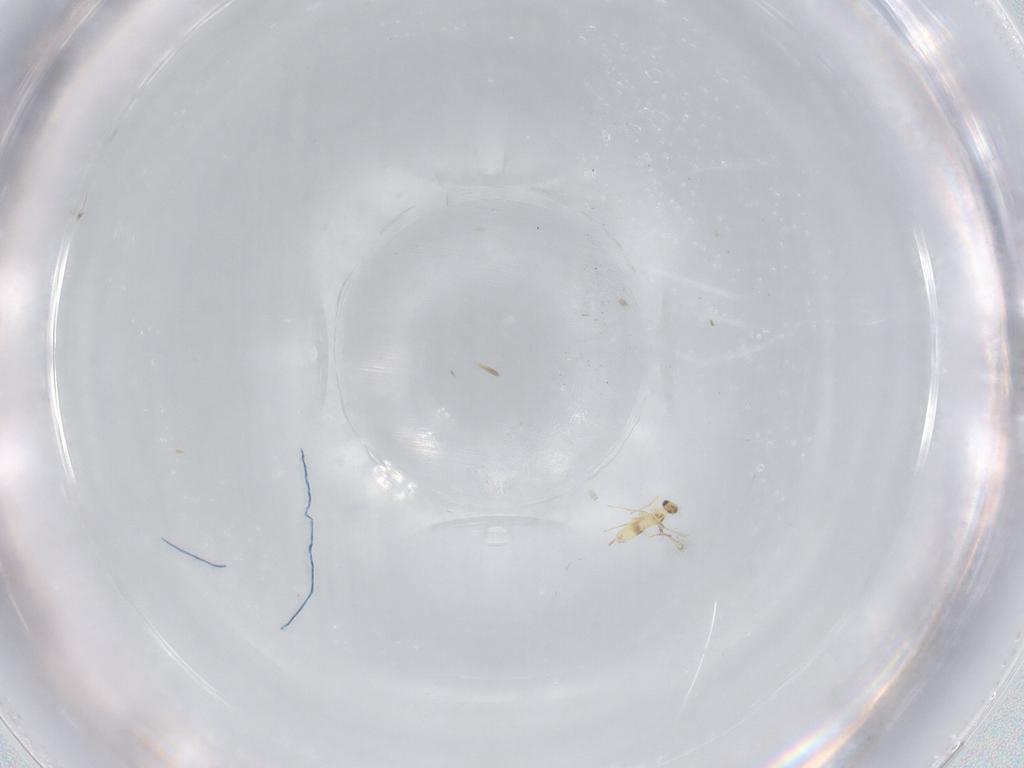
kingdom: Animalia
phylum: Arthropoda
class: Insecta
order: Hymenoptera
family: Mymaridae
